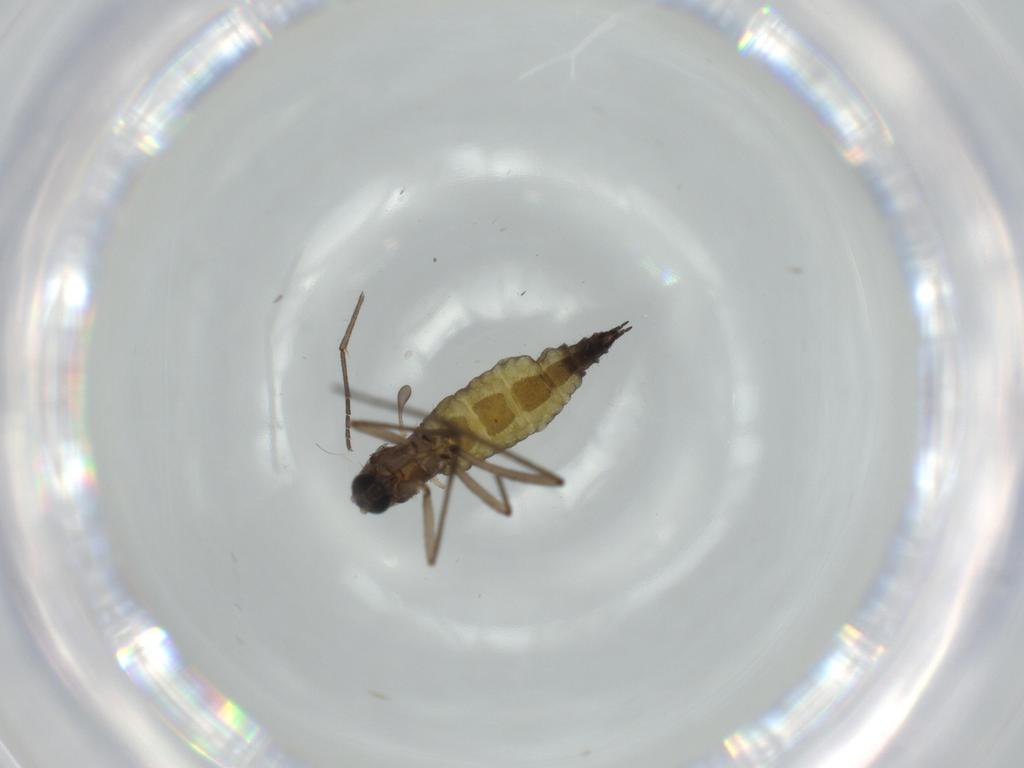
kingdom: Animalia
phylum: Arthropoda
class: Insecta
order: Diptera
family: Sciaridae
